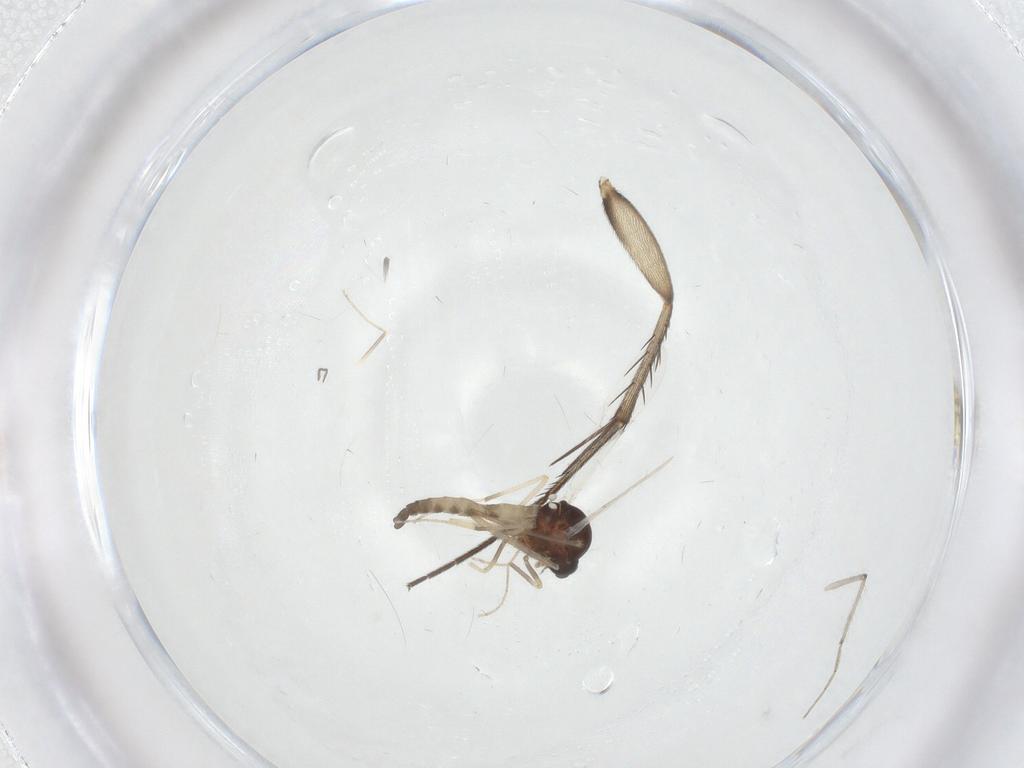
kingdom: Animalia
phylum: Arthropoda
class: Insecta
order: Diptera
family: Ceratopogonidae
